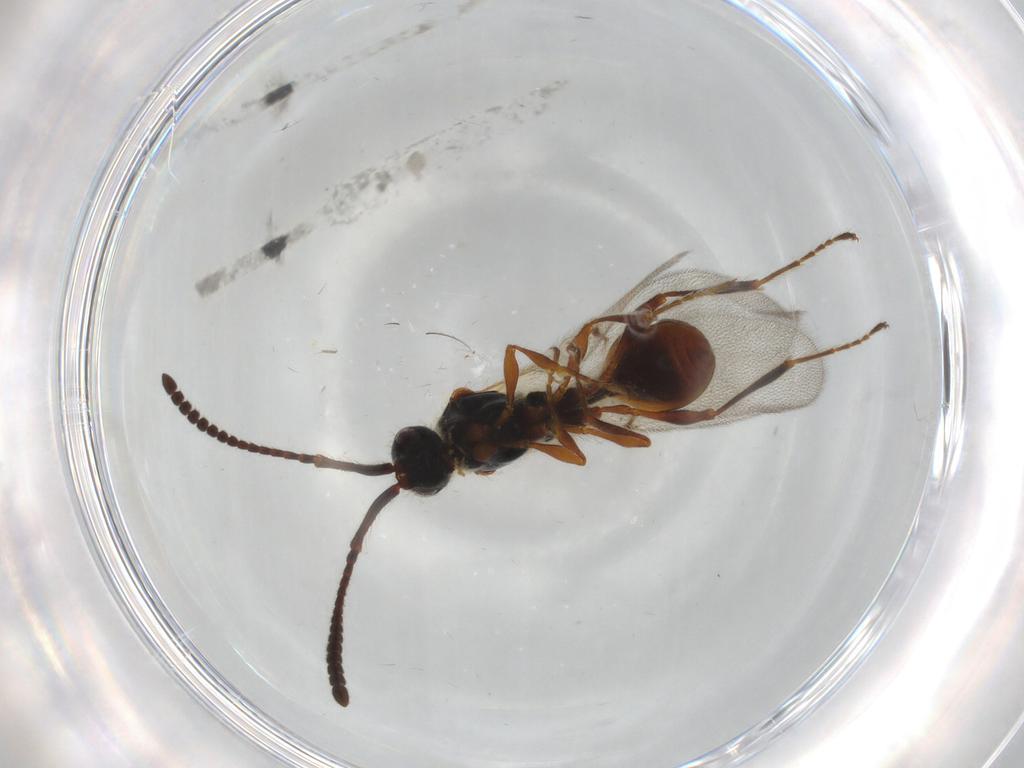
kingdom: Animalia
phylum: Arthropoda
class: Insecta
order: Hymenoptera
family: Diapriidae
